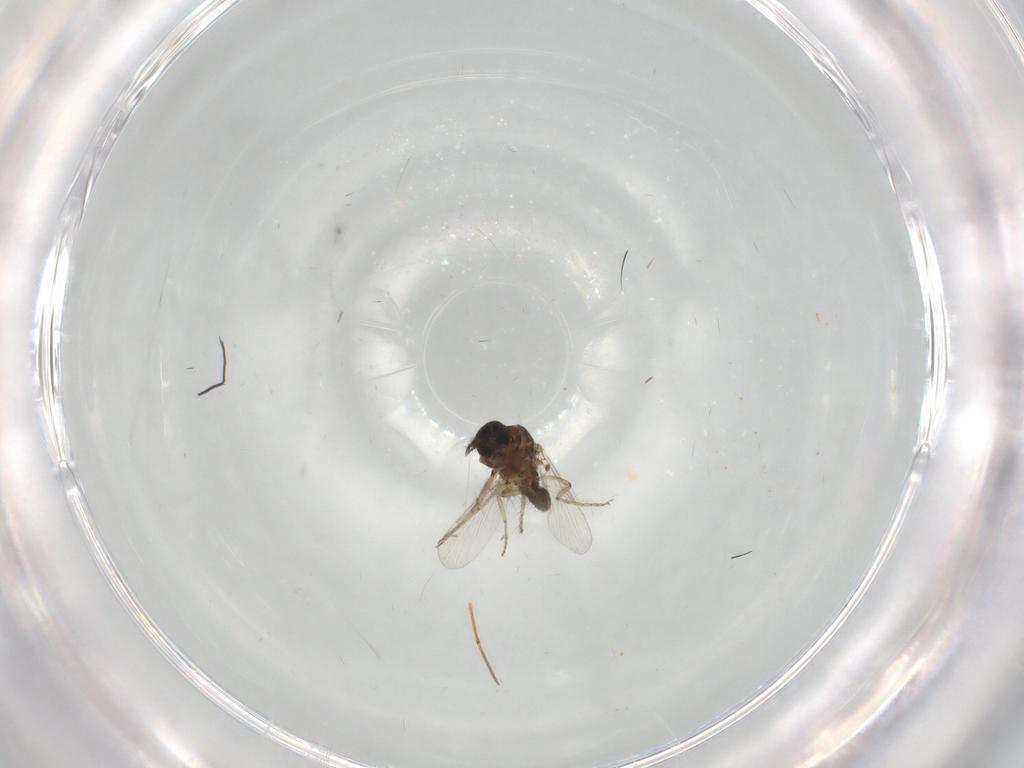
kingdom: Animalia
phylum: Arthropoda
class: Insecta
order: Diptera
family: Ceratopogonidae
